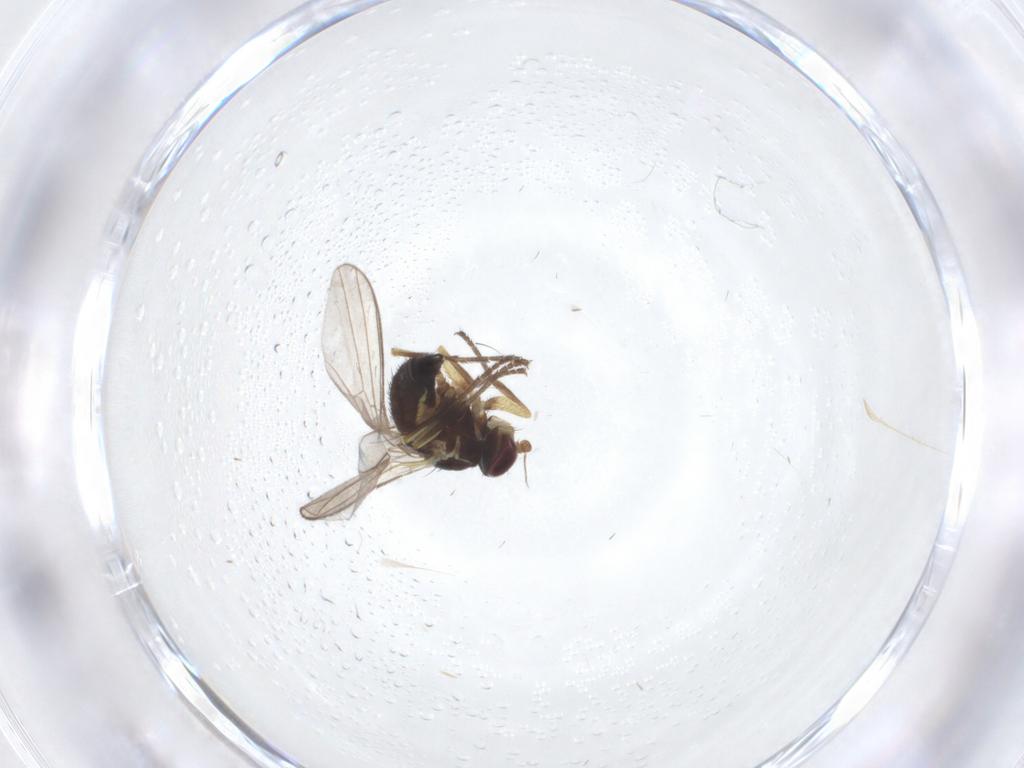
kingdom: Animalia
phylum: Arthropoda
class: Insecta
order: Diptera
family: Agromyzidae
